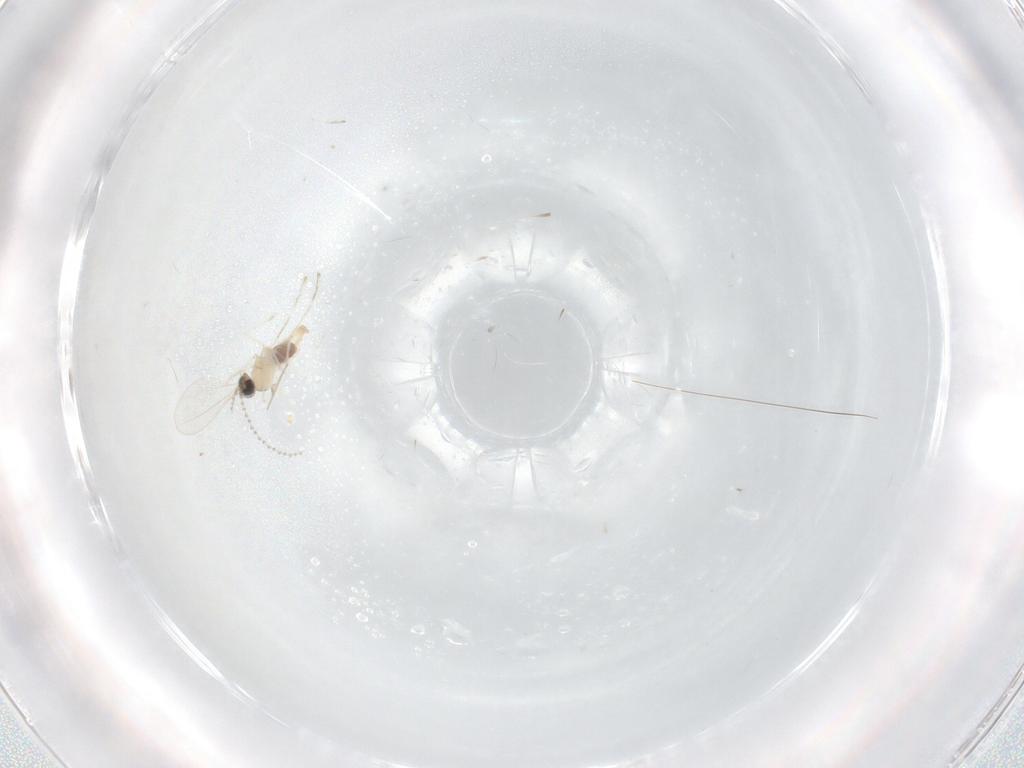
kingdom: Animalia
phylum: Arthropoda
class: Insecta
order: Diptera
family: Cecidomyiidae
